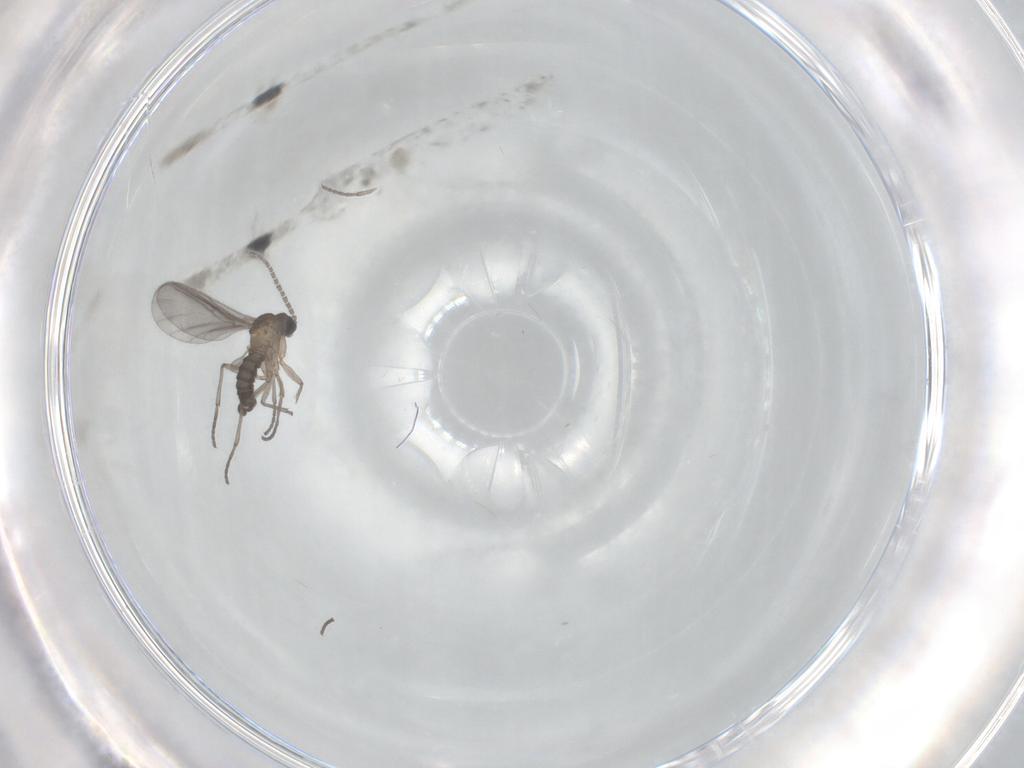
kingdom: Animalia
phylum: Arthropoda
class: Insecta
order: Diptera
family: Sciaridae
